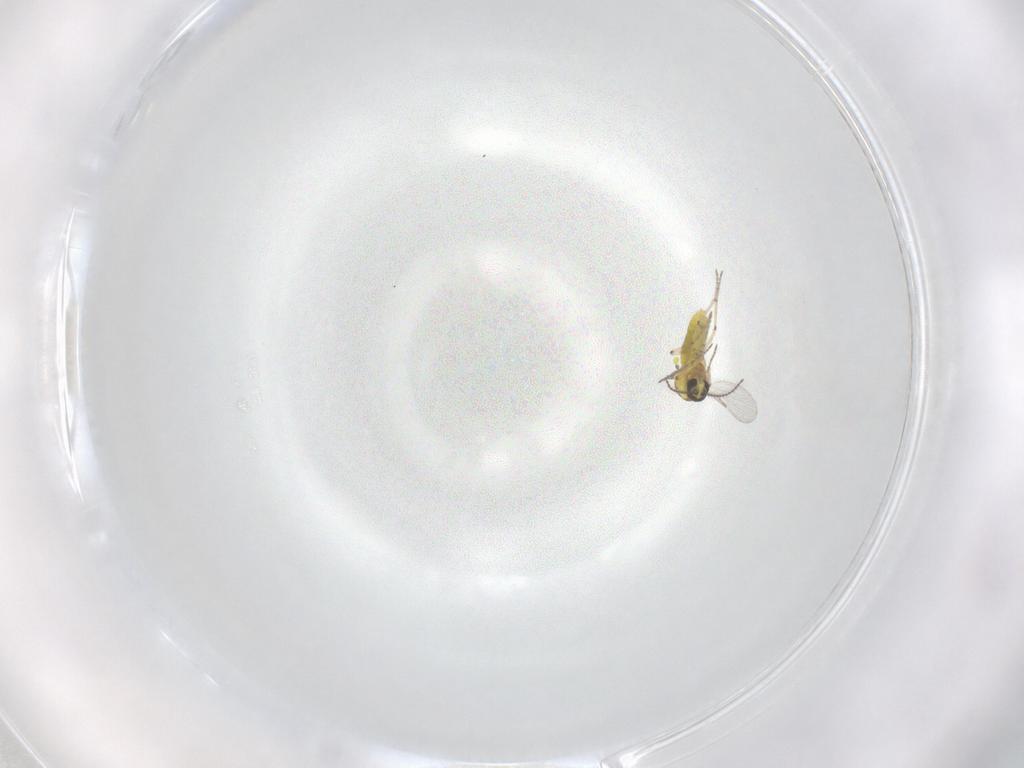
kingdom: Animalia
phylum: Arthropoda
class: Insecta
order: Diptera
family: Ceratopogonidae
